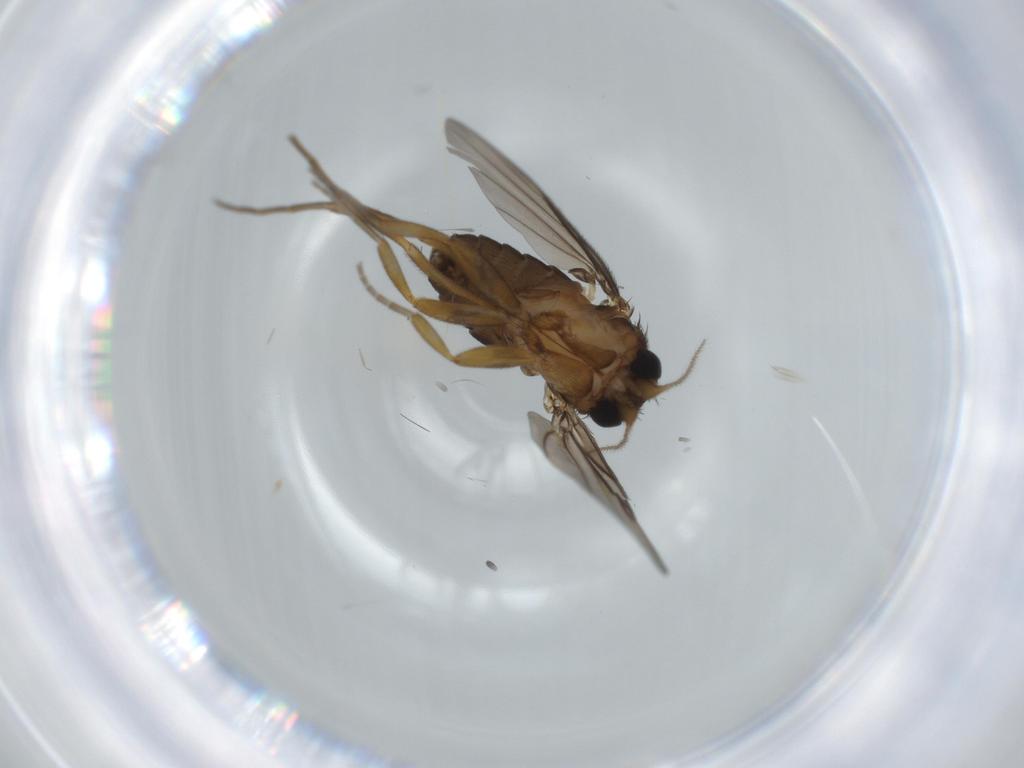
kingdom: Animalia
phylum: Arthropoda
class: Insecta
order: Diptera
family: Sciaridae
